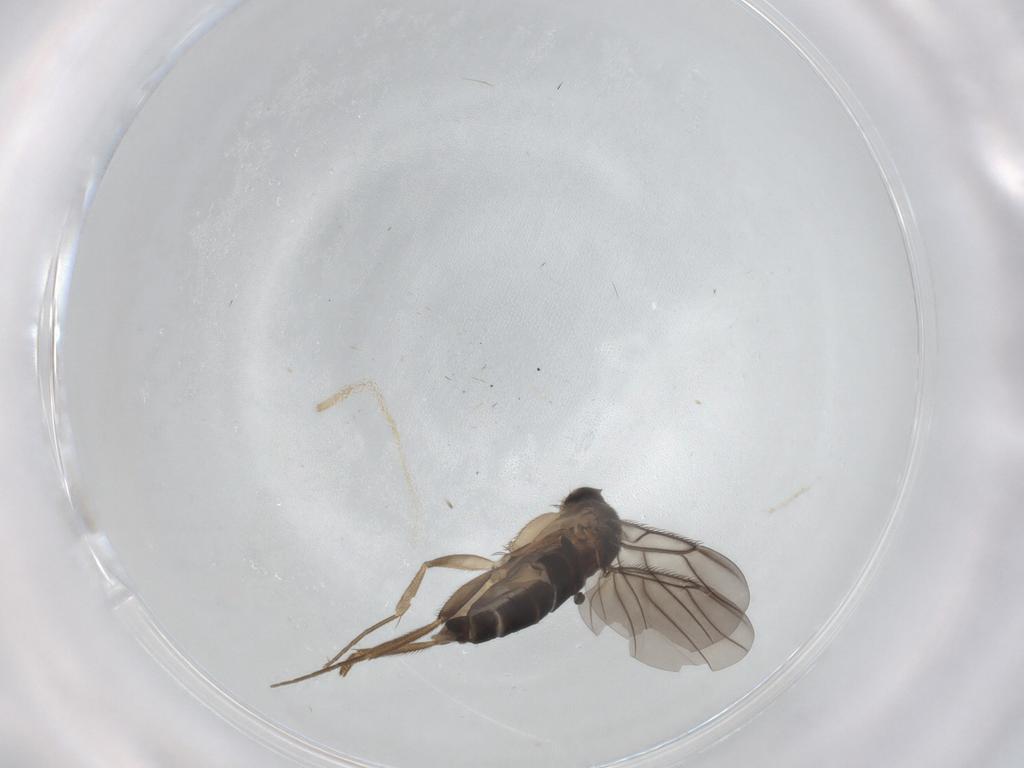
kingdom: Animalia
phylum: Arthropoda
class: Insecta
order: Diptera
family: Phoridae
